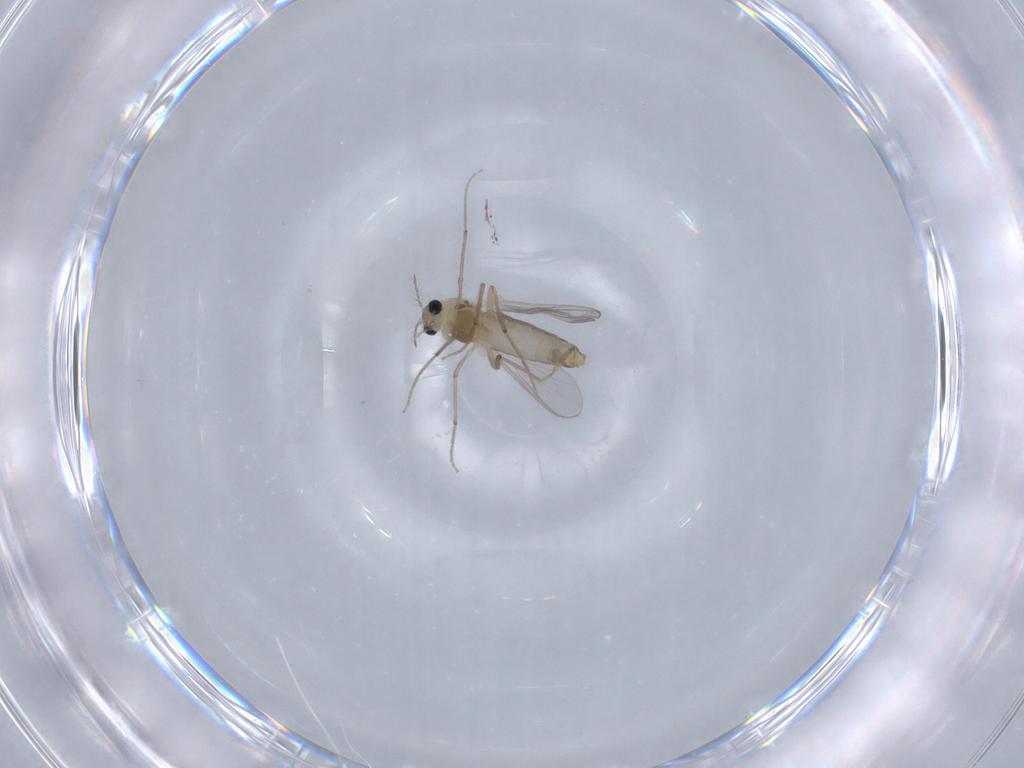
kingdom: Animalia
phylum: Arthropoda
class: Insecta
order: Diptera
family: Chironomidae
